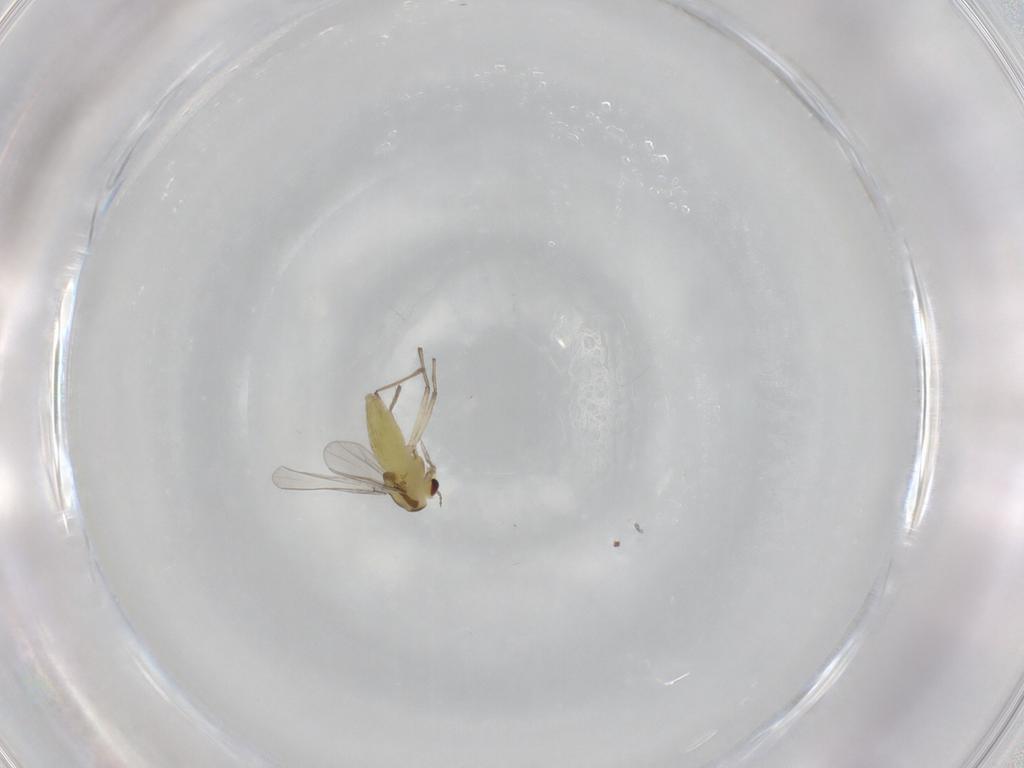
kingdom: Animalia
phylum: Arthropoda
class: Insecta
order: Diptera
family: Chironomidae
